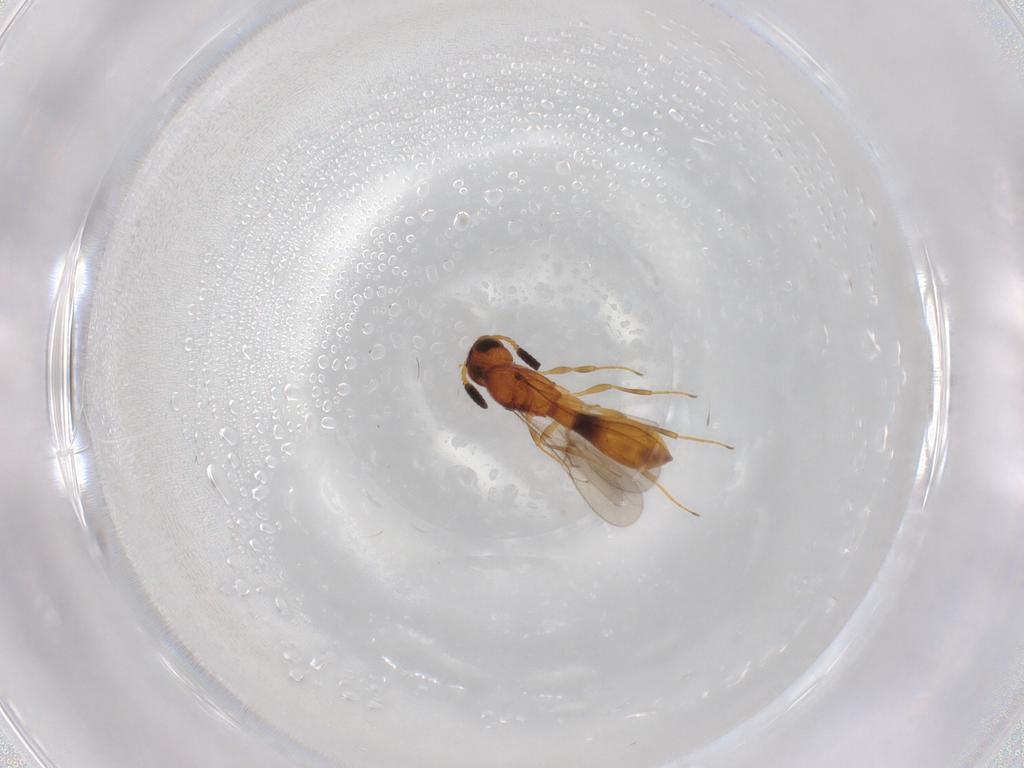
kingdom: Animalia
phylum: Arthropoda
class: Insecta
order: Hymenoptera
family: Scelionidae
